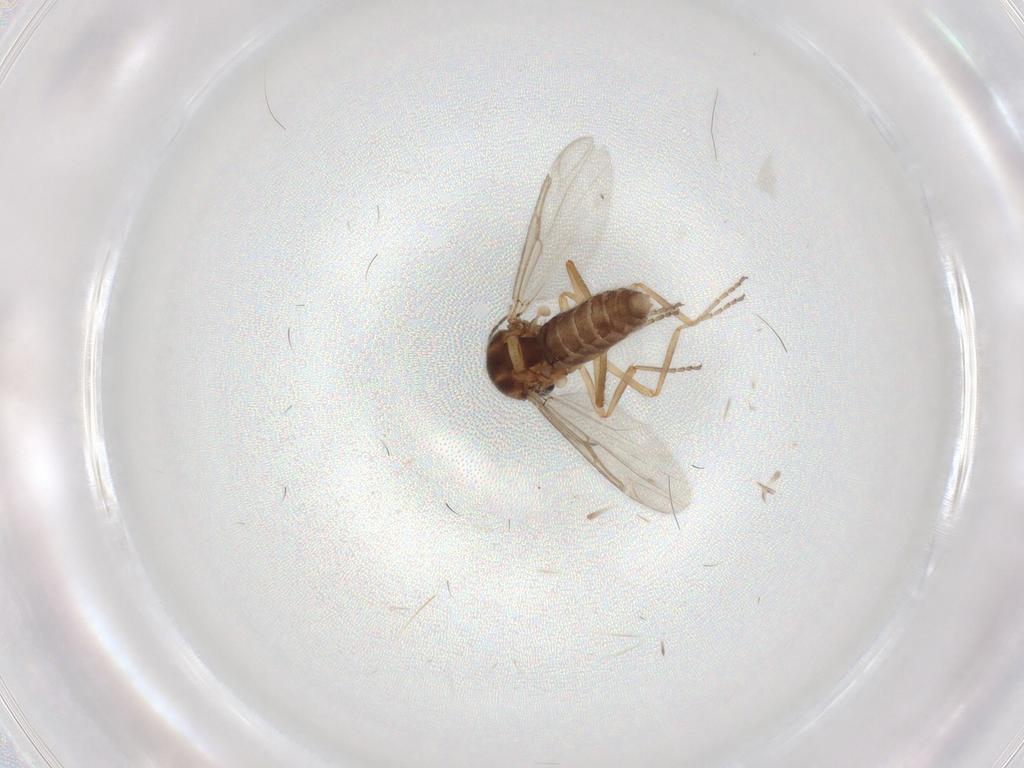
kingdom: Animalia
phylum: Arthropoda
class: Insecta
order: Diptera
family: Ceratopogonidae
